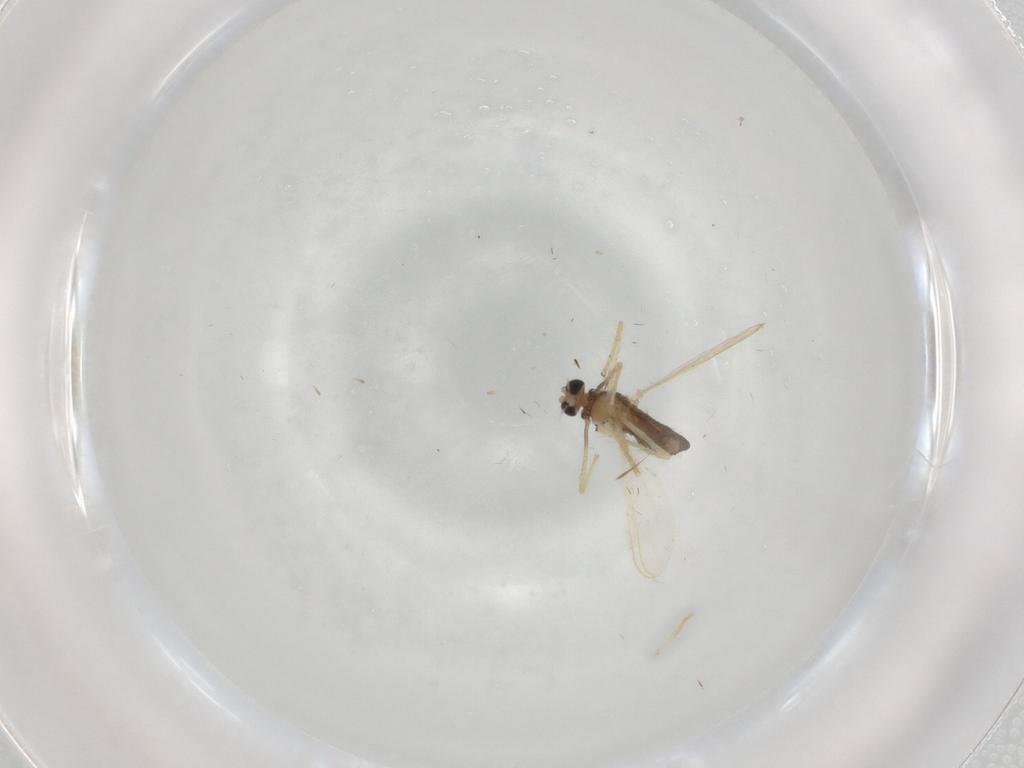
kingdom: Animalia
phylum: Arthropoda
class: Insecta
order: Diptera
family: Chironomidae
